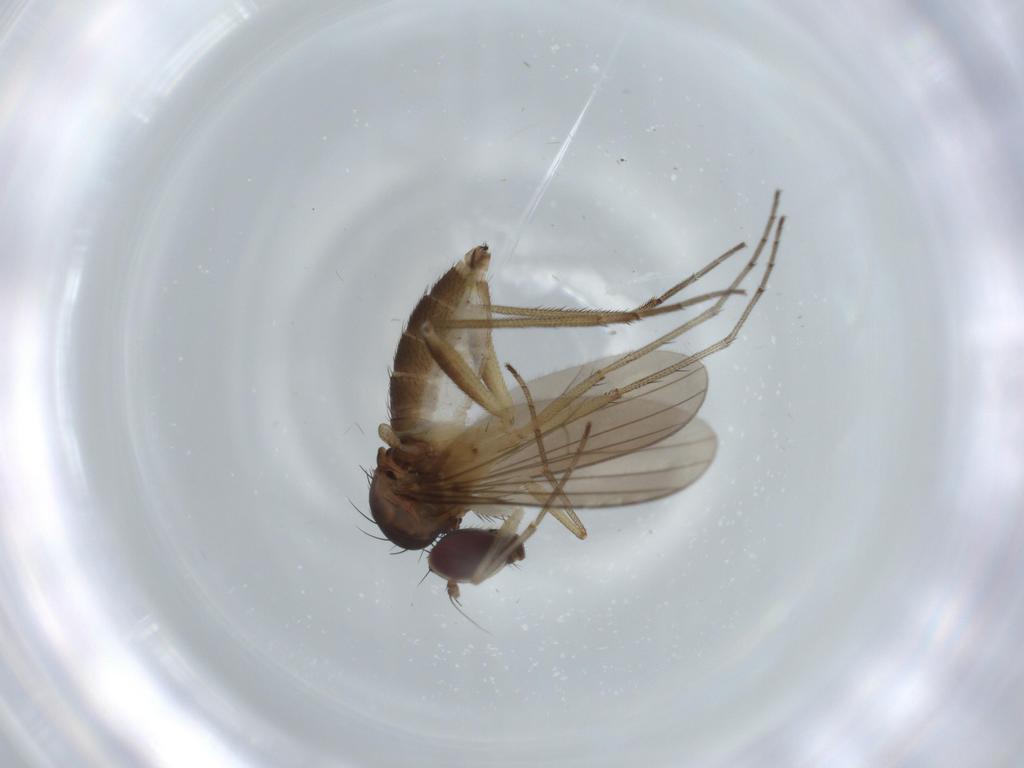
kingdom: Animalia
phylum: Arthropoda
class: Insecta
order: Diptera
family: Dolichopodidae
